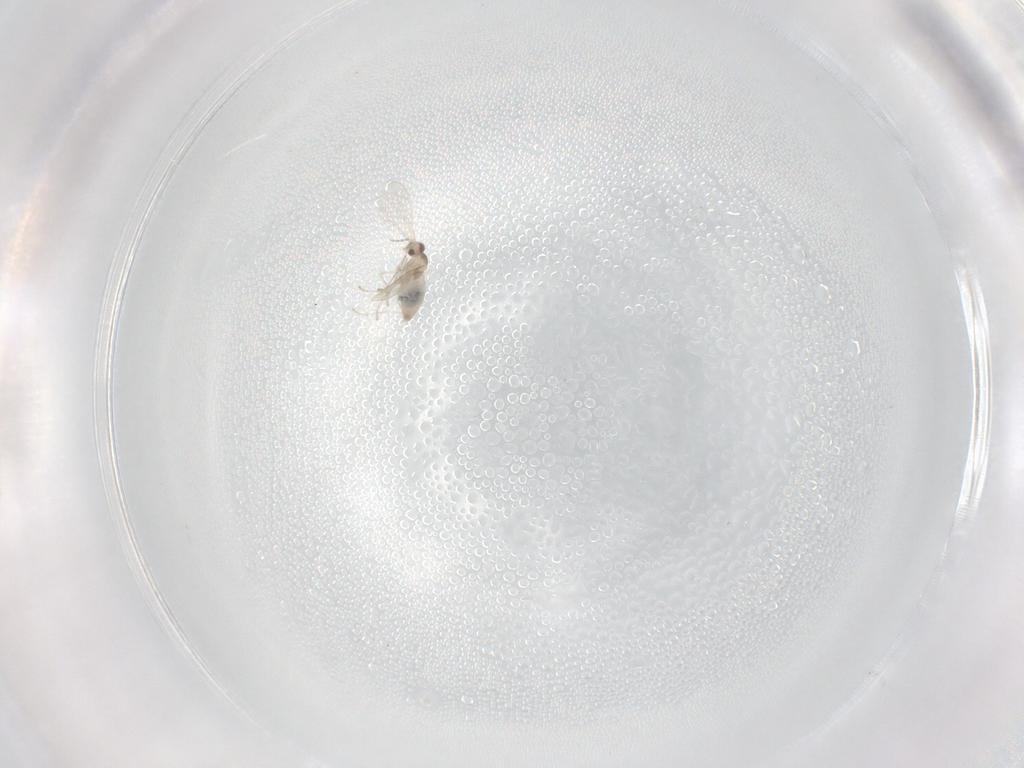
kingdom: Animalia
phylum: Arthropoda
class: Insecta
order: Diptera
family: Cecidomyiidae
